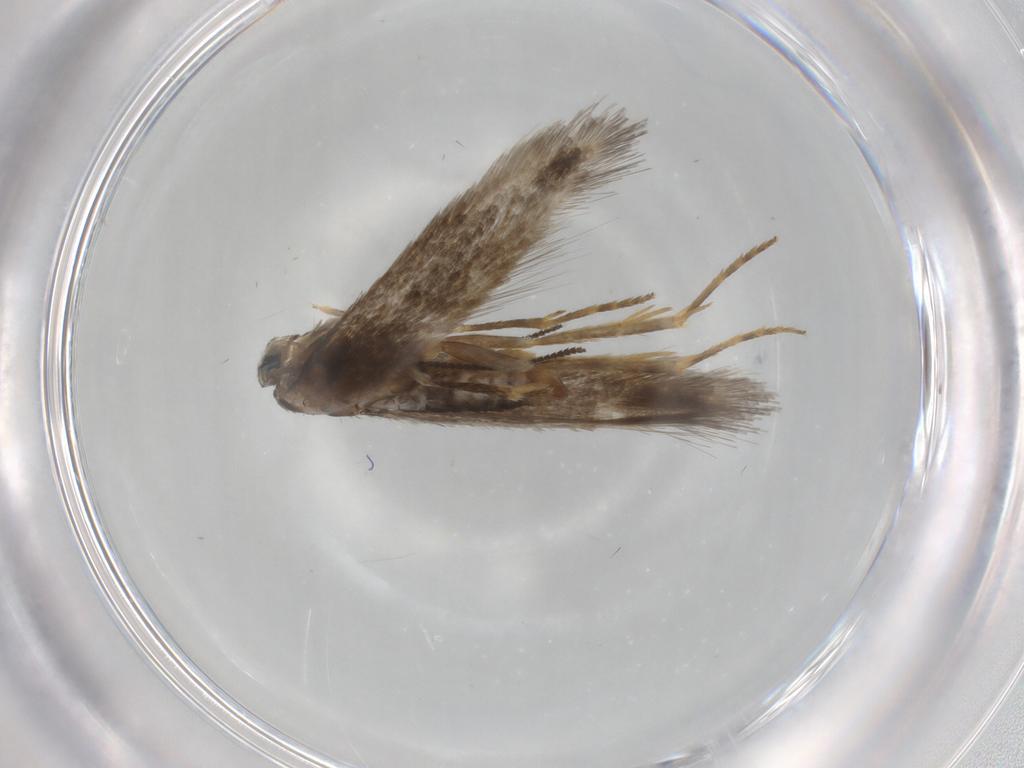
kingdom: Animalia
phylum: Arthropoda
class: Insecta
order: Lepidoptera
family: Nepticulidae
